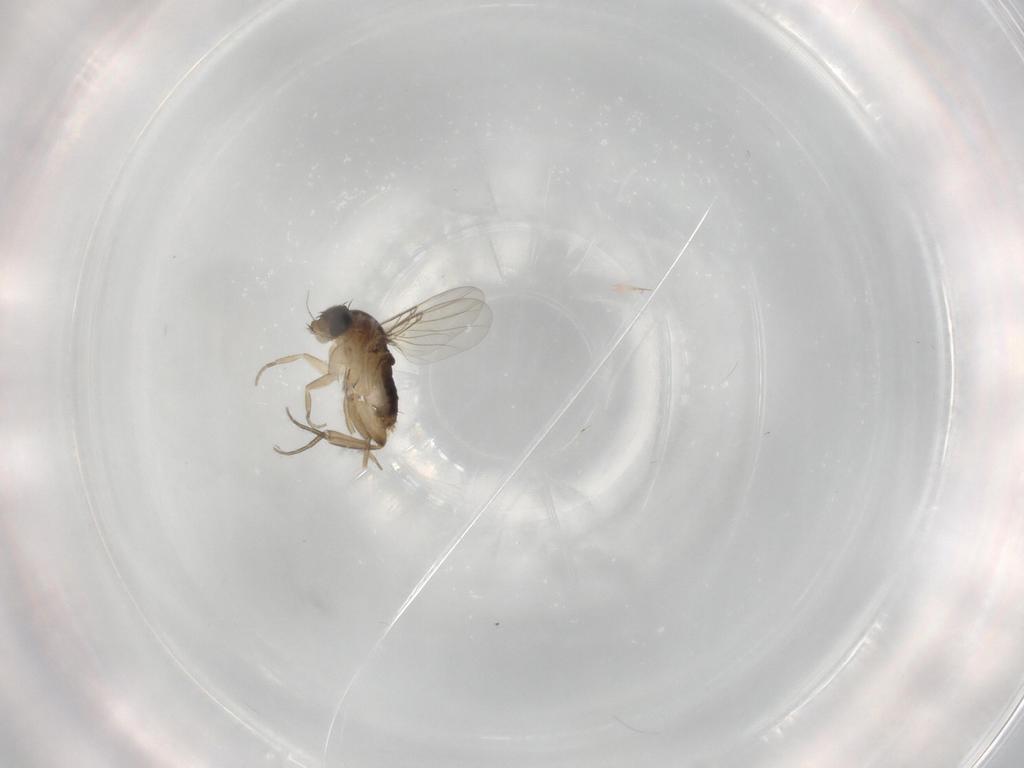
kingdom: Animalia
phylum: Arthropoda
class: Insecta
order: Diptera
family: Phoridae
